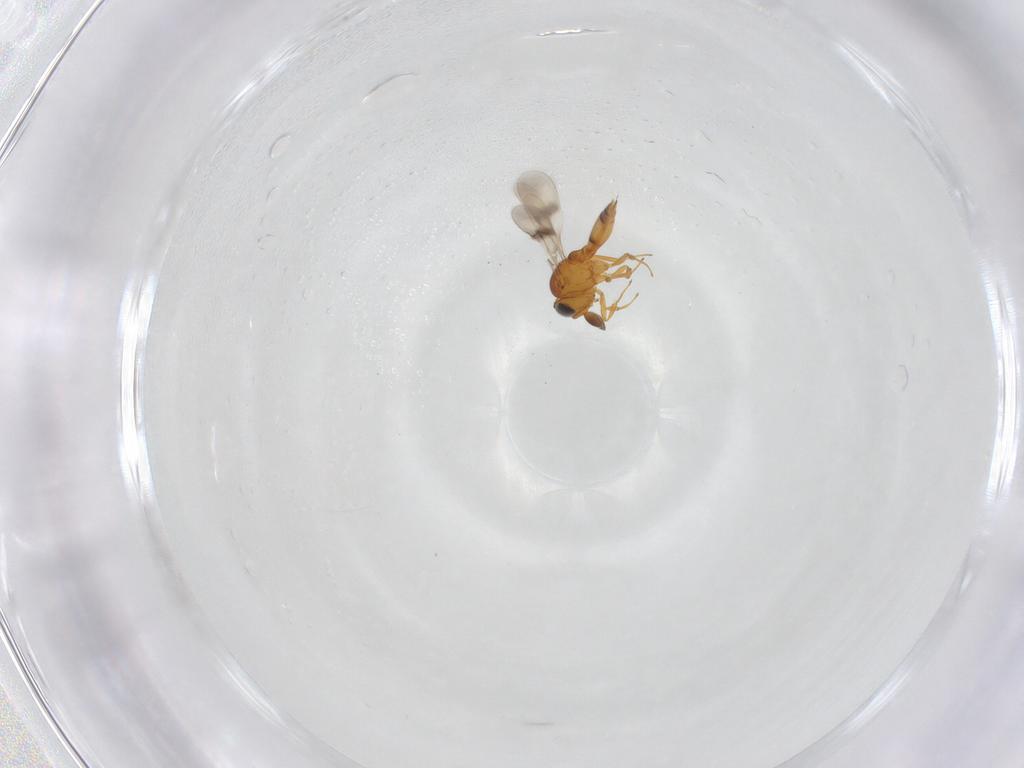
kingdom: Animalia
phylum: Arthropoda
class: Insecta
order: Hymenoptera
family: Scelionidae
